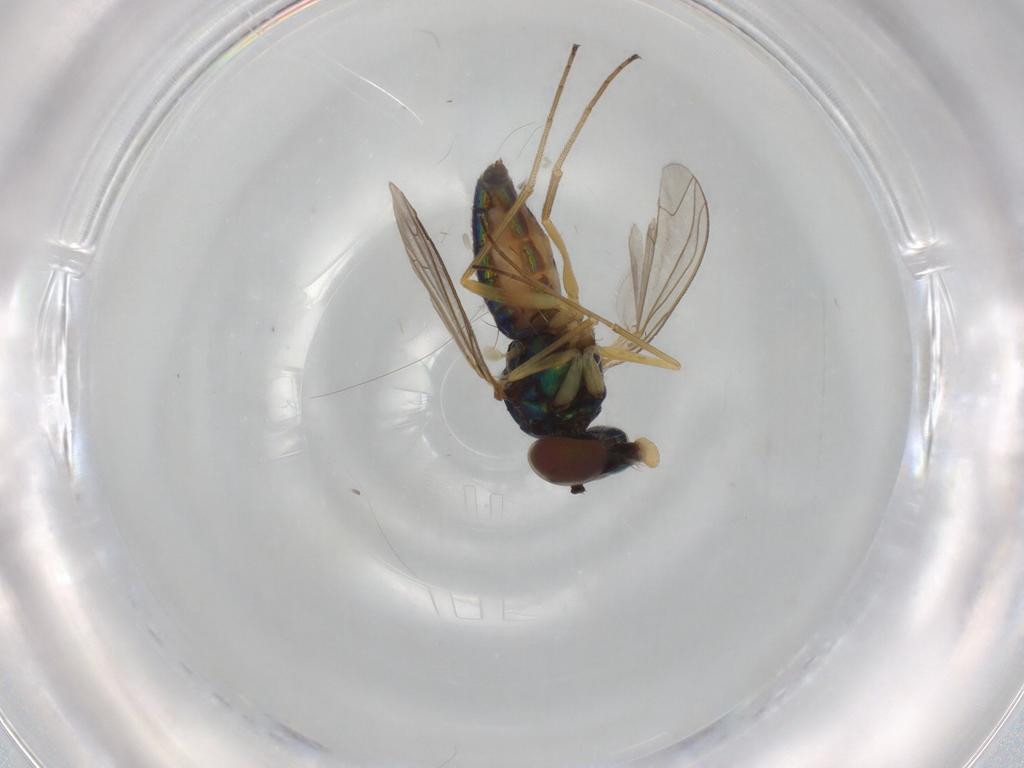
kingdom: Animalia
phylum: Arthropoda
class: Insecta
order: Diptera
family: Dolichopodidae
